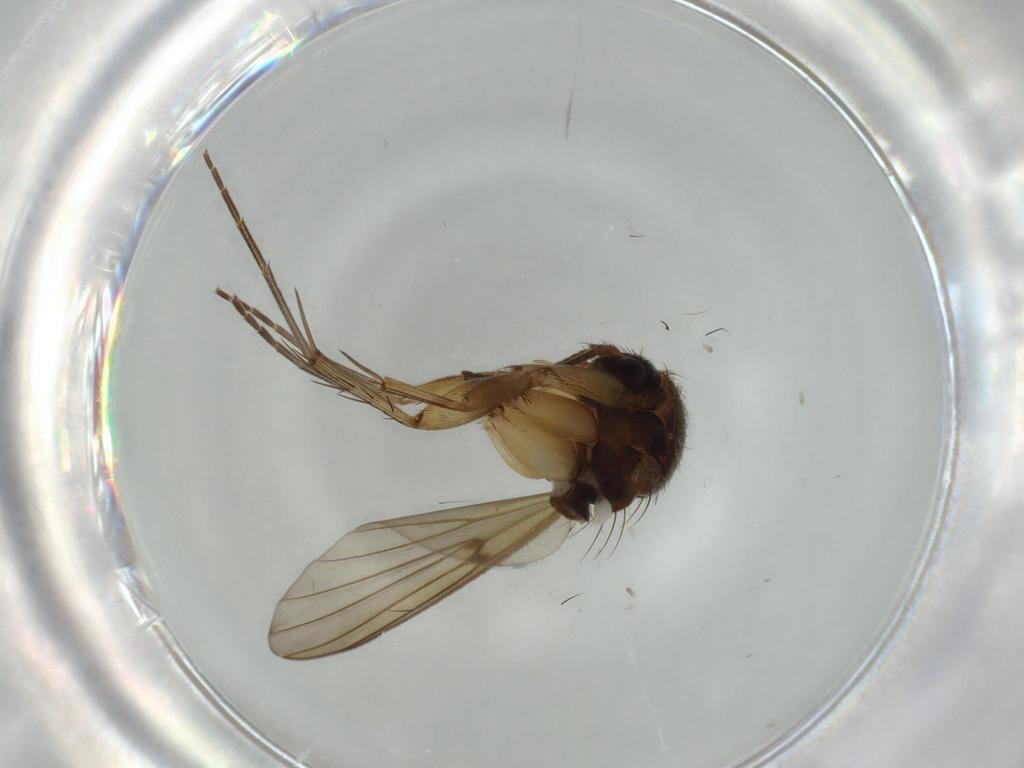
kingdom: Animalia
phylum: Arthropoda
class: Insecta
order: Diptera
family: Mycetophilidae
